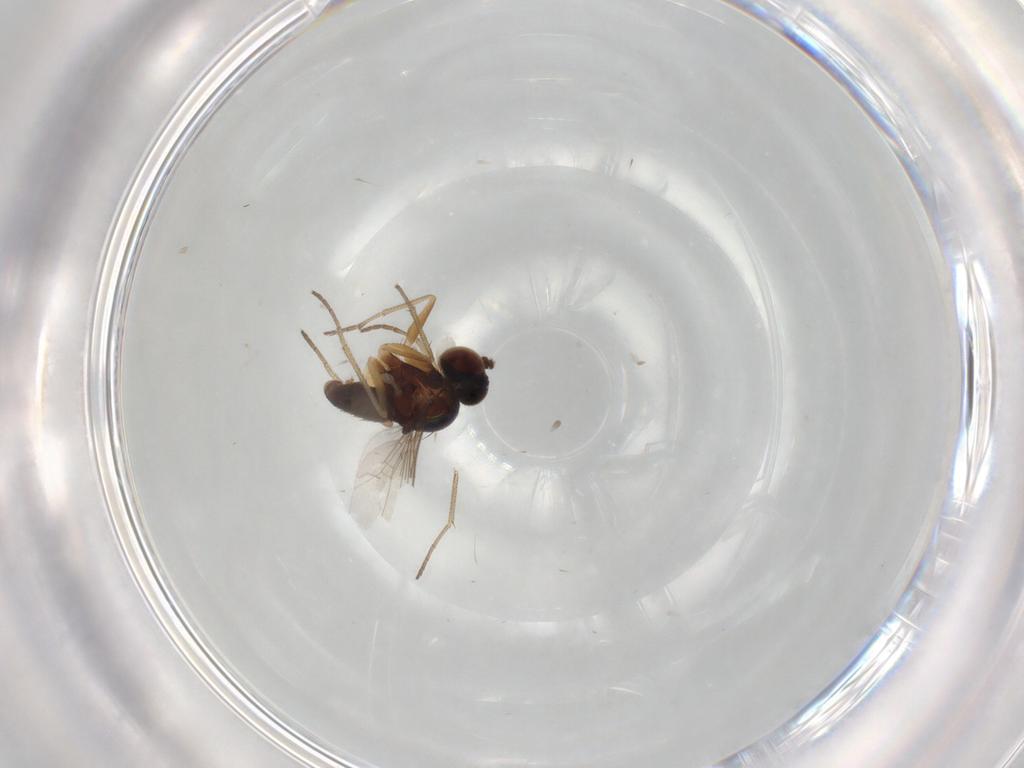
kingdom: Animalia
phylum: Arthropoda
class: Insecta
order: Diptera
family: Dolichopodidae
